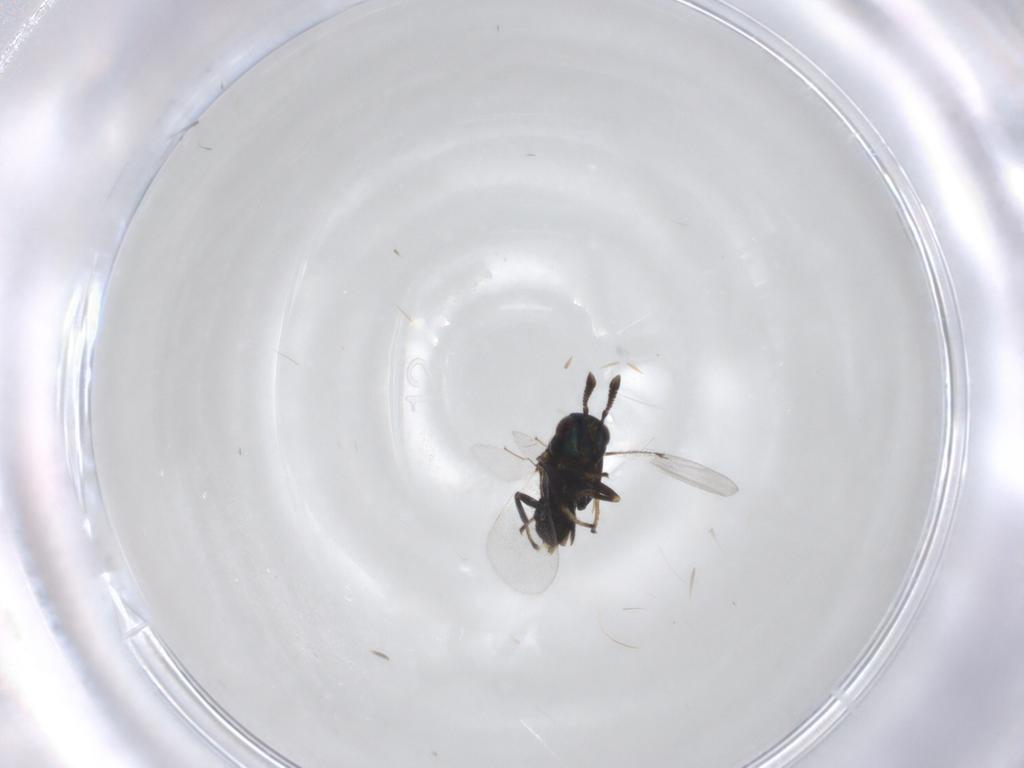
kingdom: Animalia
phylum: Arthropoda
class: Insecta
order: Hymenoptera
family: Encyrtidae
